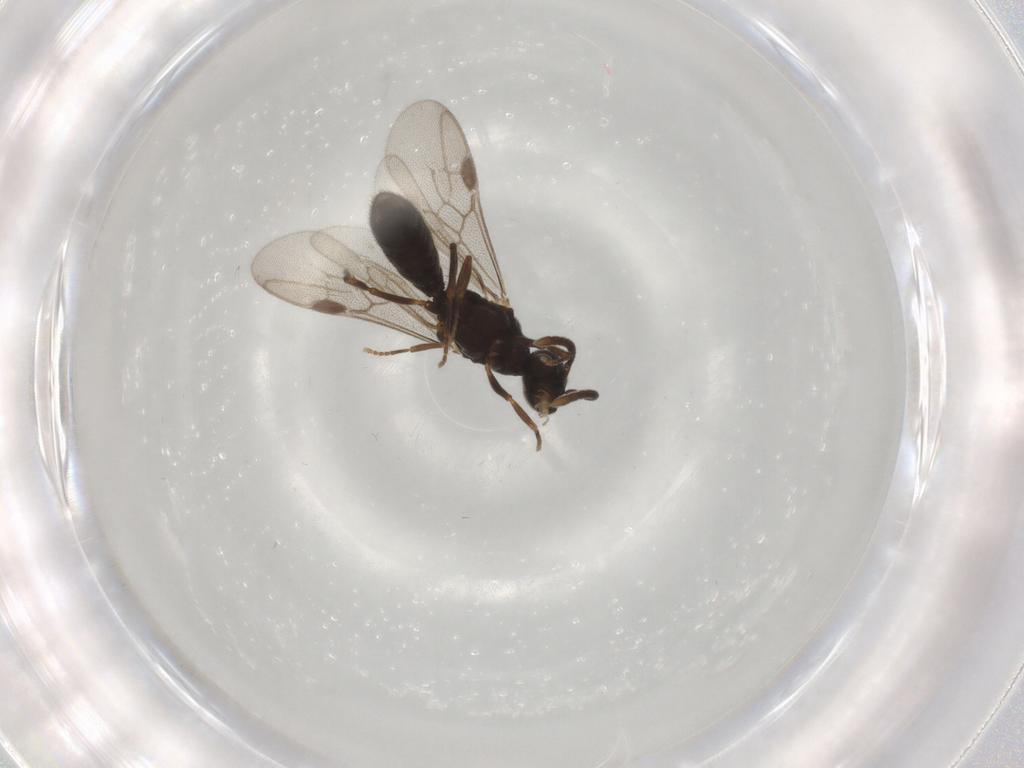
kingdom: Animalia
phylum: Arthropoda
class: Insecta
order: Hymenoptera
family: Formicidae
